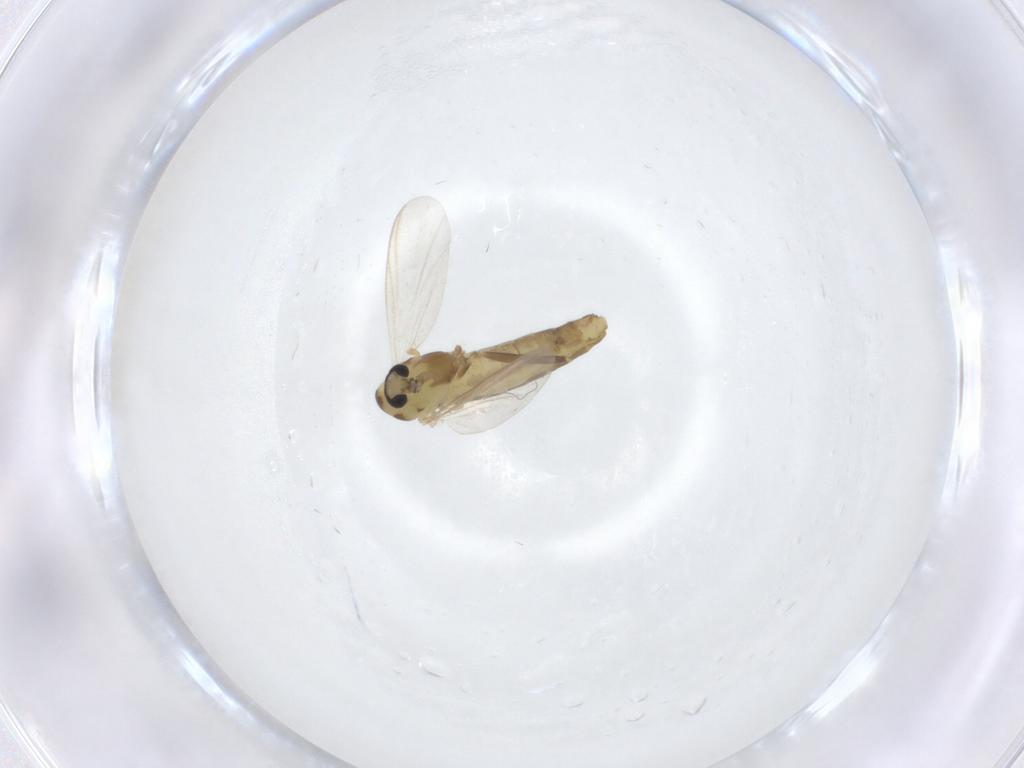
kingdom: Animalia
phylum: Arthropoda
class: Insecta
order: Diptera
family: Chironomidae
